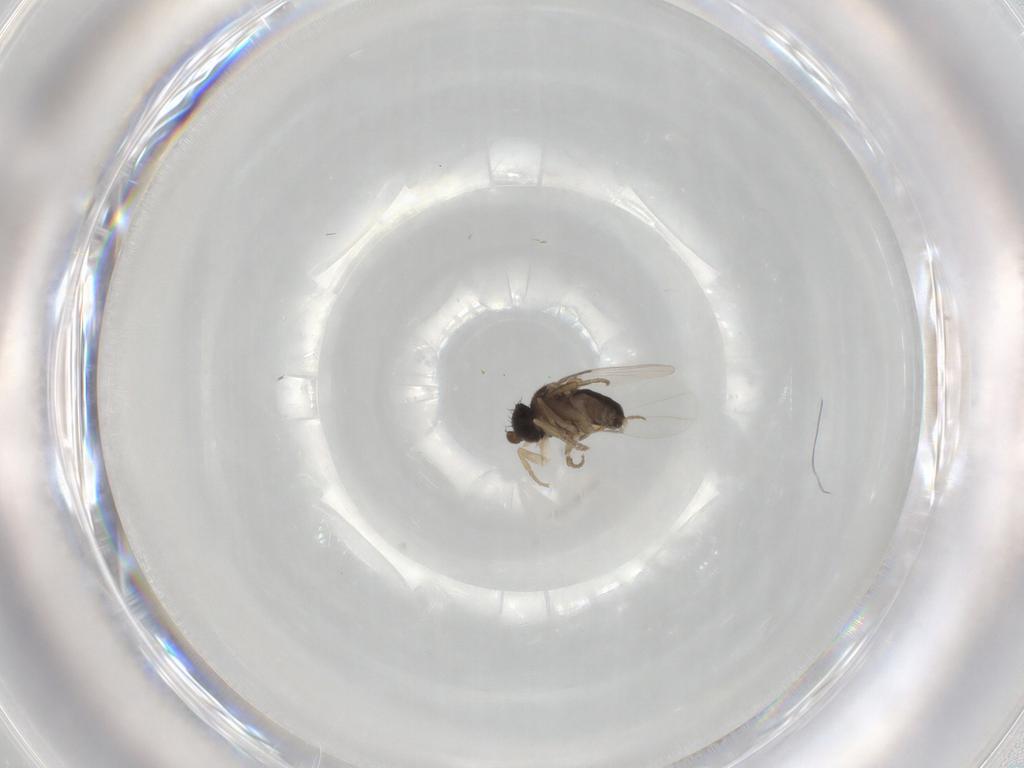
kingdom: Animalia
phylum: Arthropoda
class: Insecta
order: Diptera
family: Phoridae
